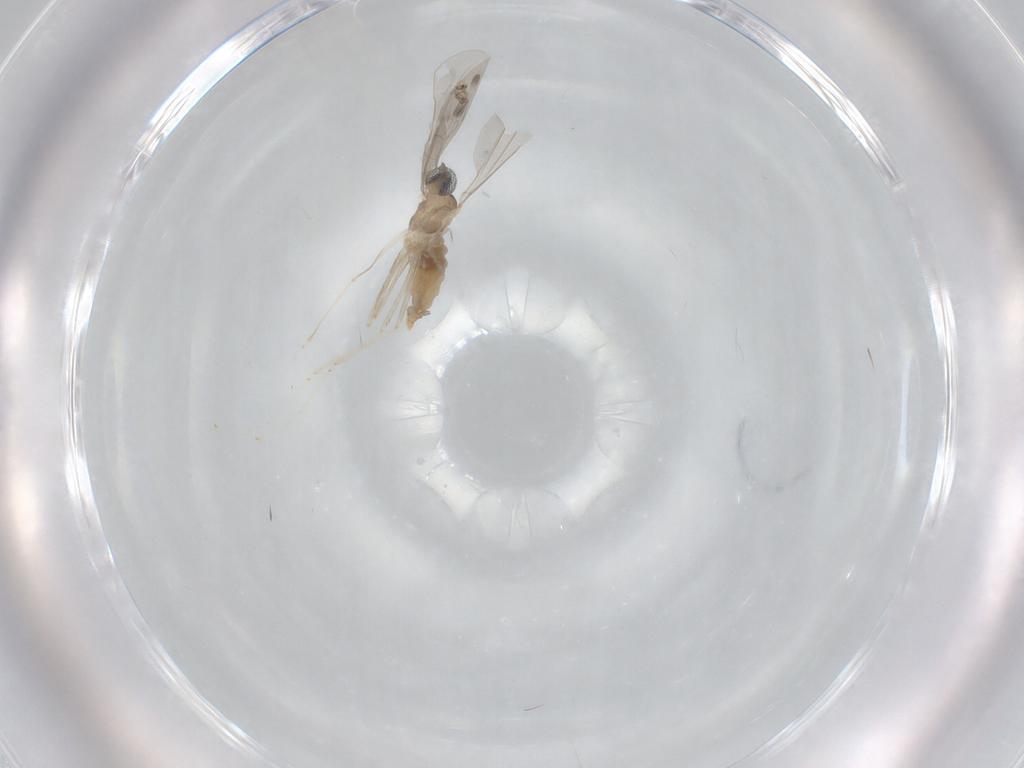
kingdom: Animalia
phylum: Arthropoda
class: Insecta
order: Diptera
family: Cecidomyiidae
